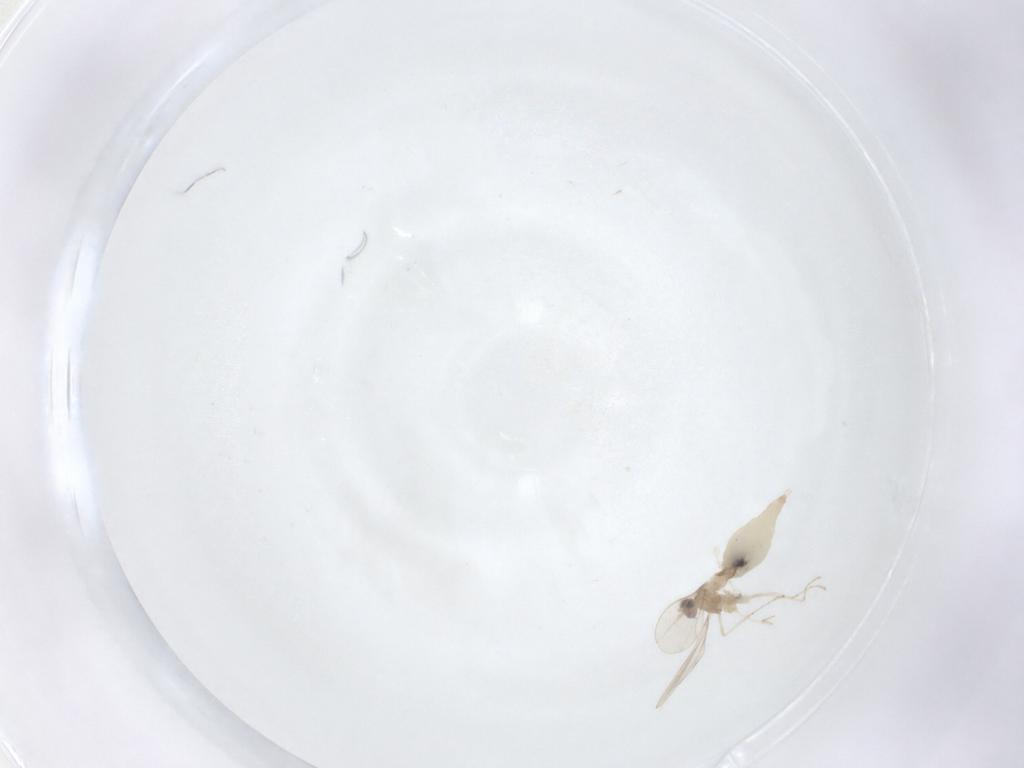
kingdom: Animalia
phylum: Arthropoda
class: Insecta
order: Diptera
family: Cecidomyiidae
